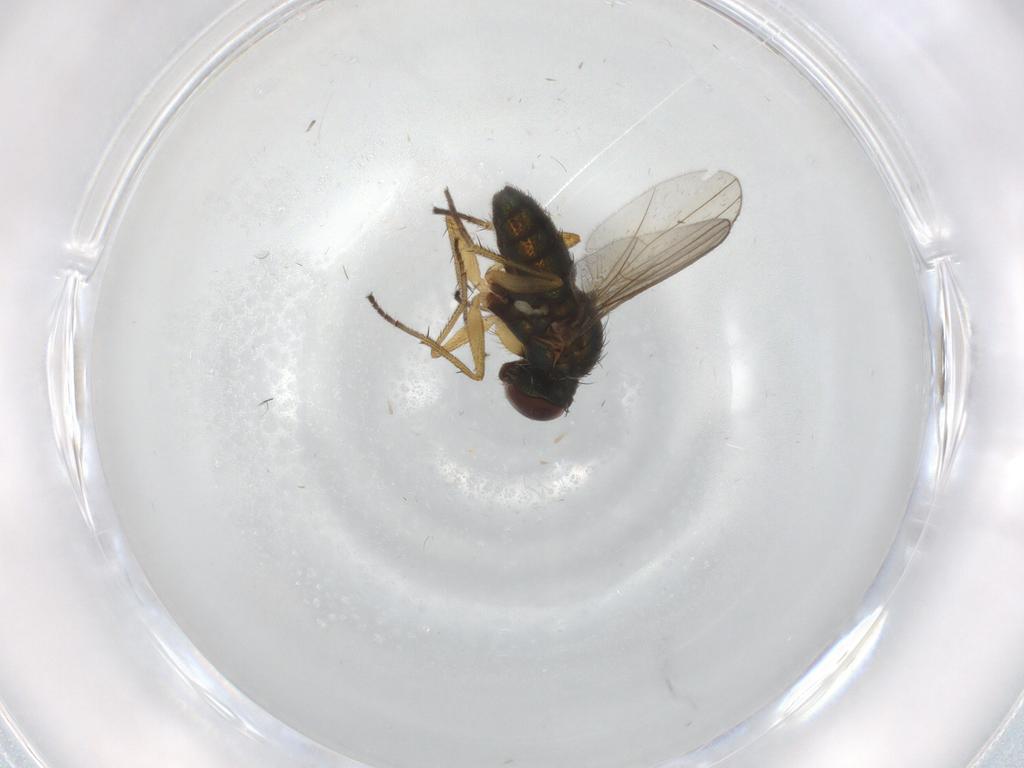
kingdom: Animalia
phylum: Arthropoda
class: Insecta
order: Diptera
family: Dolichopodidae
